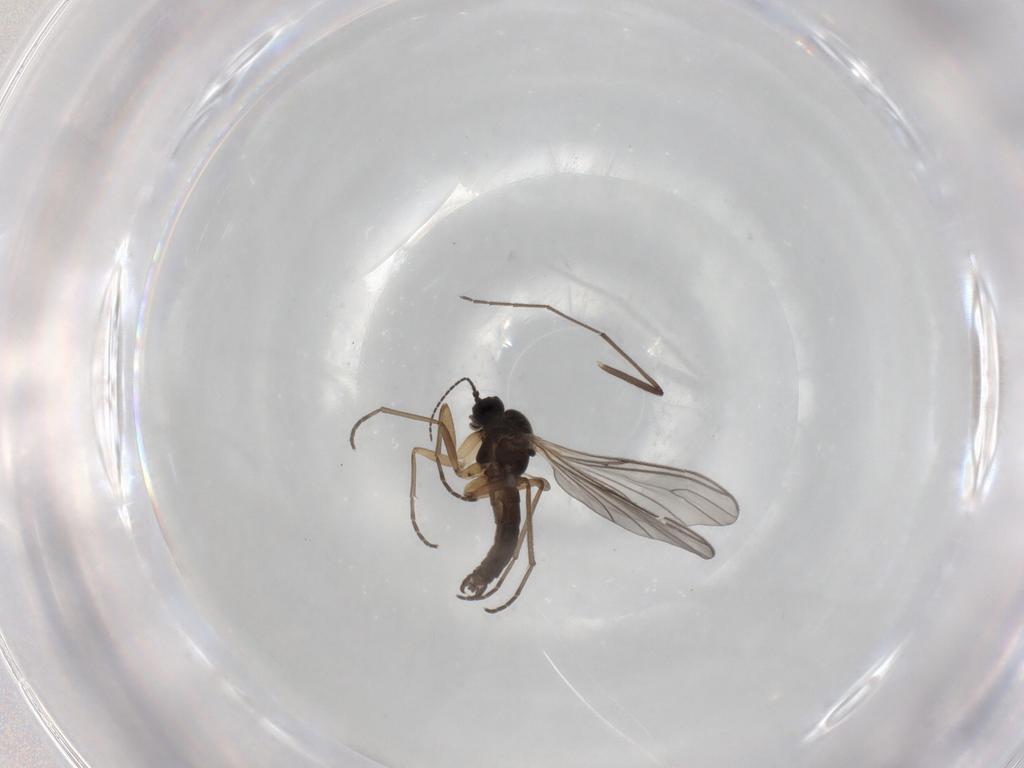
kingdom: Animalia
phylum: Arthropoda
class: Insecta
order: Diptera
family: Sciaridae
